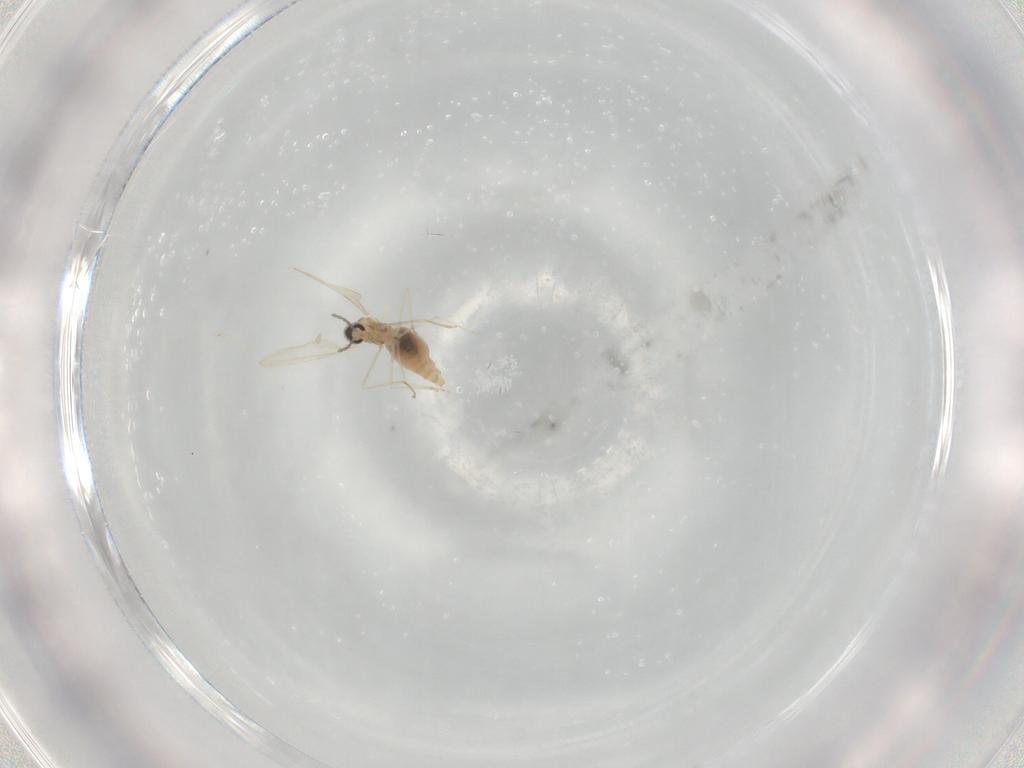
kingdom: Animalia
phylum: Arthropoda
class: Insecta
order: Diptera
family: Cecidomyiidae
